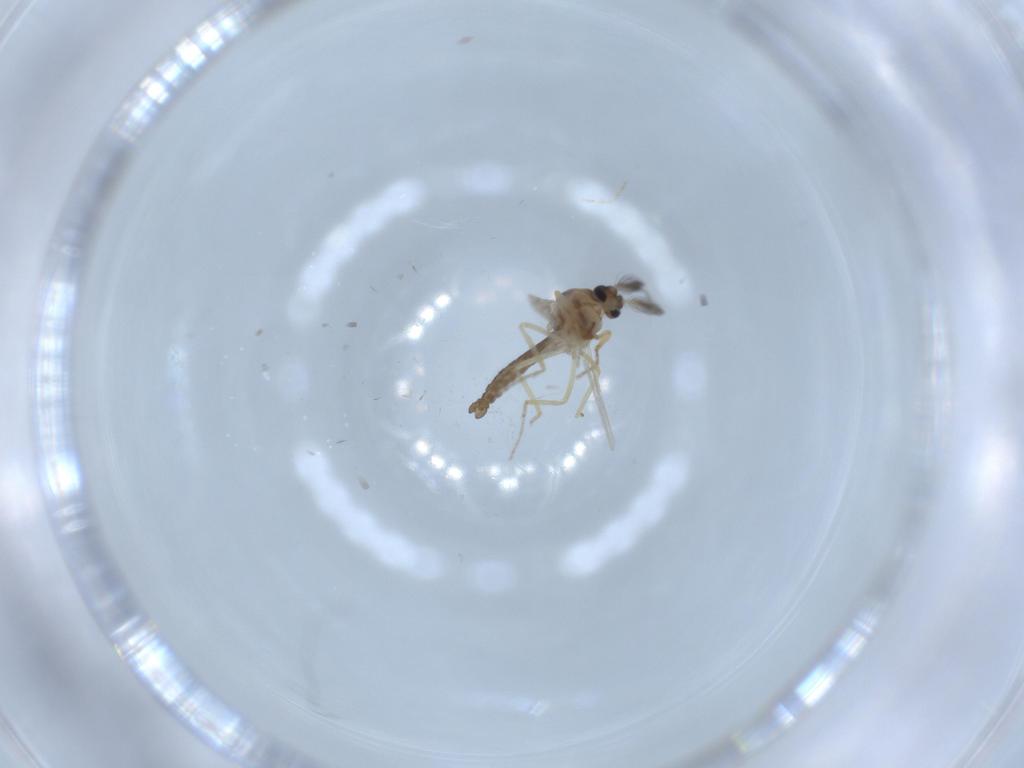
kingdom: Animalia
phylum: Arthropoda
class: Insecta
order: Diptera
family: Ceratopogonidae
